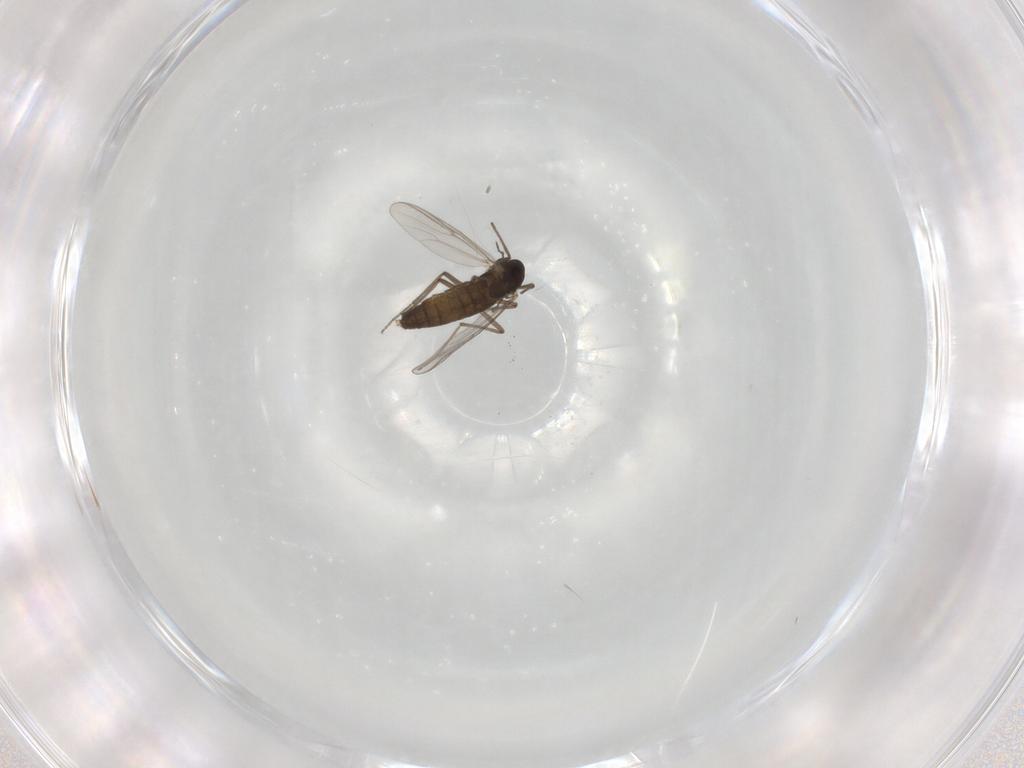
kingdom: Animalia
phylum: Arthropoda
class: Insecta
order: Diptera
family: Chironomidae
